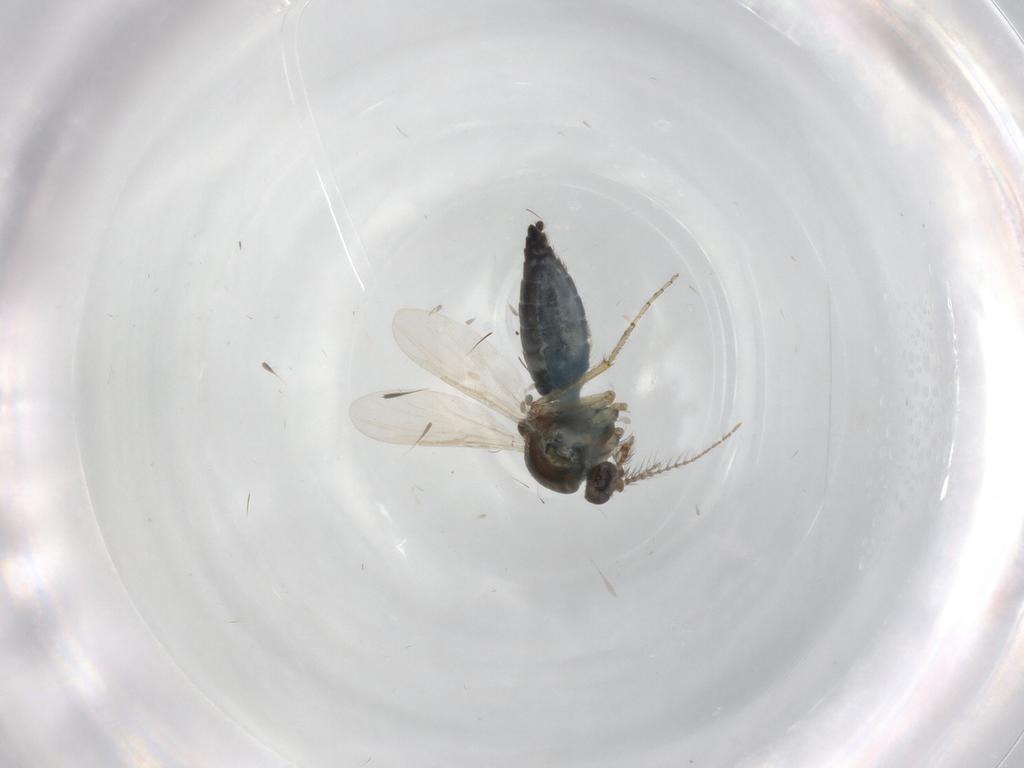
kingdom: Animalia
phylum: Arthropoda
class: Insecta
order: Diptera
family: Ceratopogonidae
